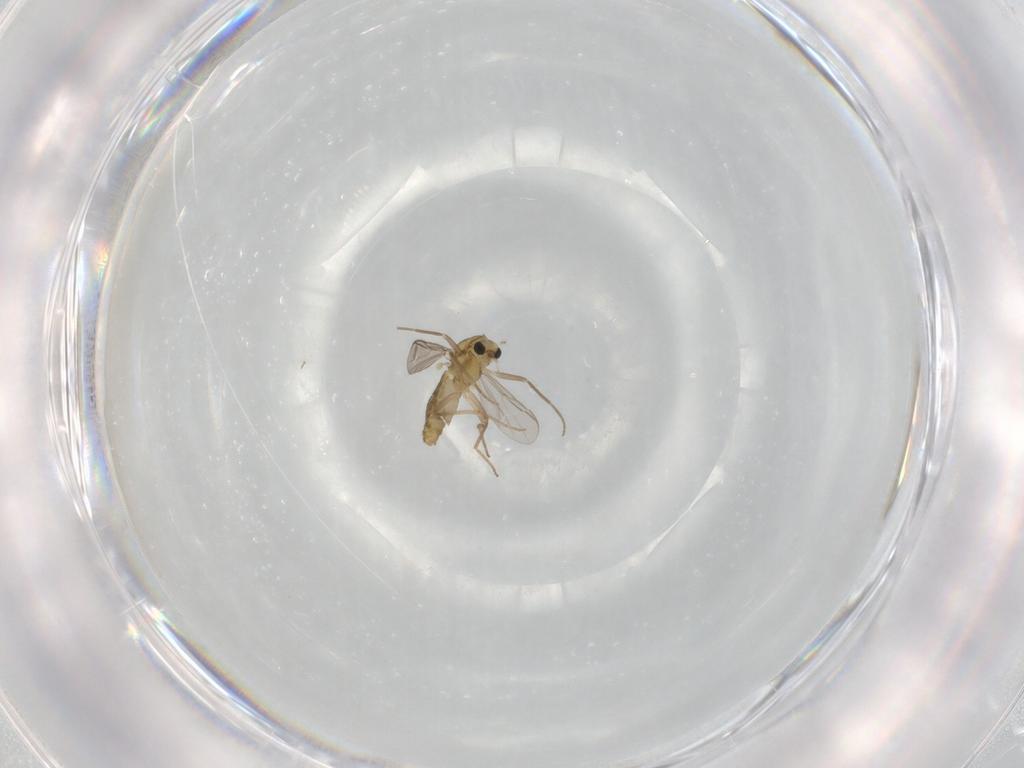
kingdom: Animalia
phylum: Arthropoda
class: Insecta
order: Diptera
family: Chironomidae
